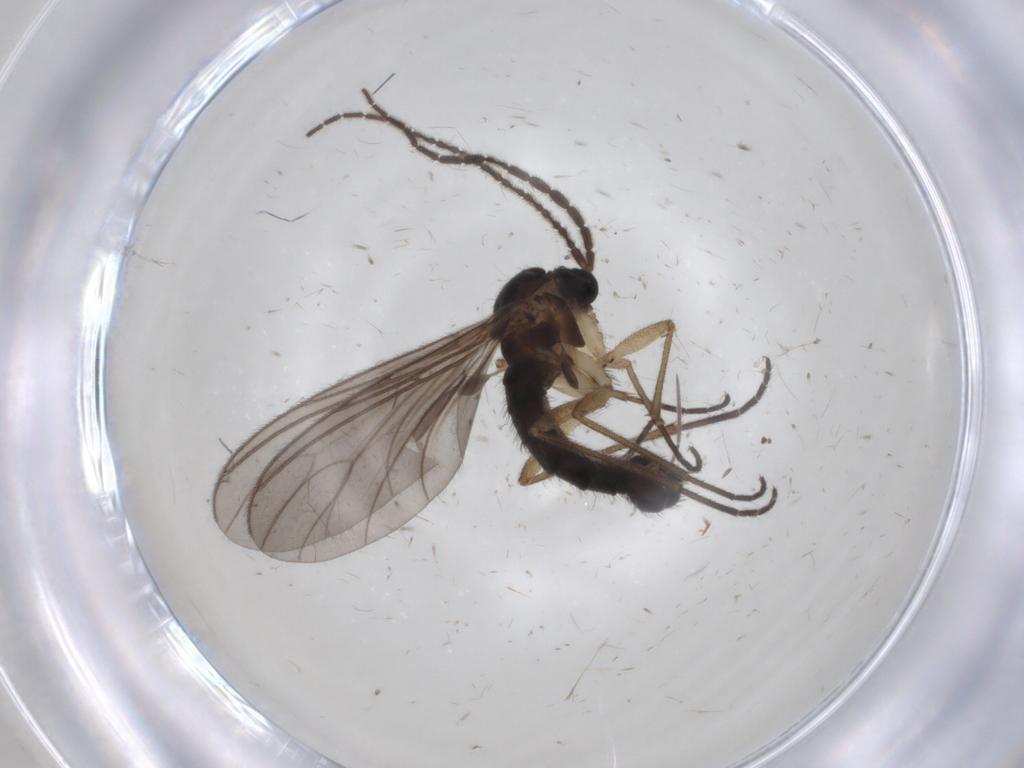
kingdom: Animalia
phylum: Arthropoda
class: Insecta
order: Diptera
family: Sciaridae
